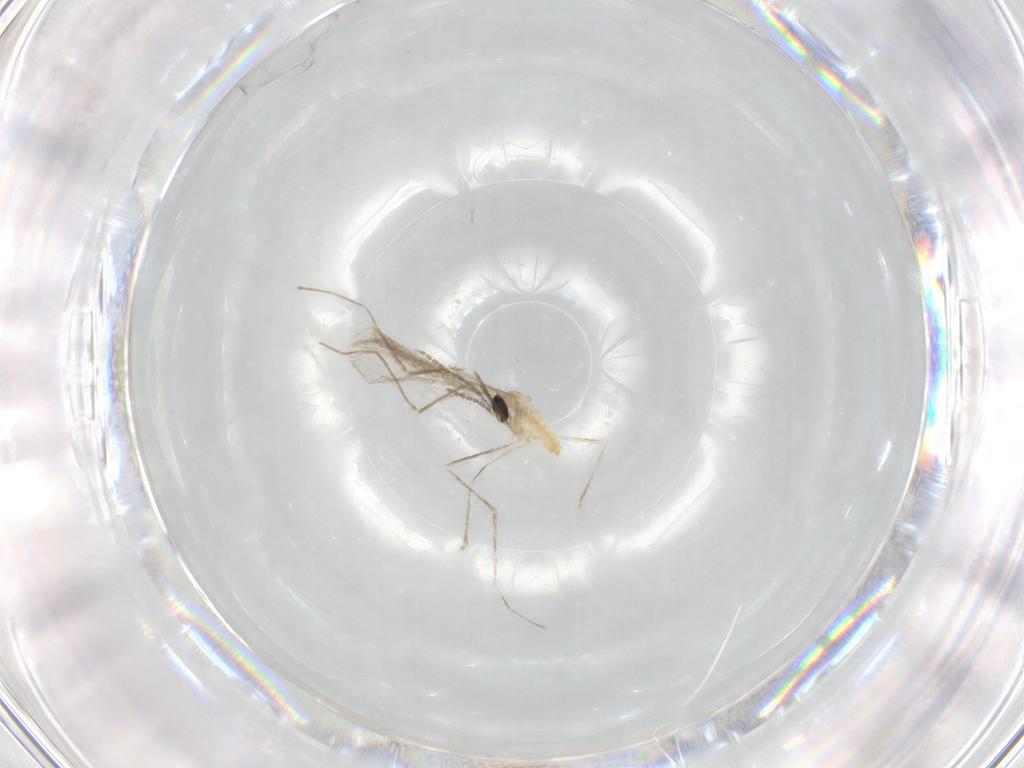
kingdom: Animalia
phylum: Arthropoda
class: Insecta
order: Diptera
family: Cecidomyiidae
